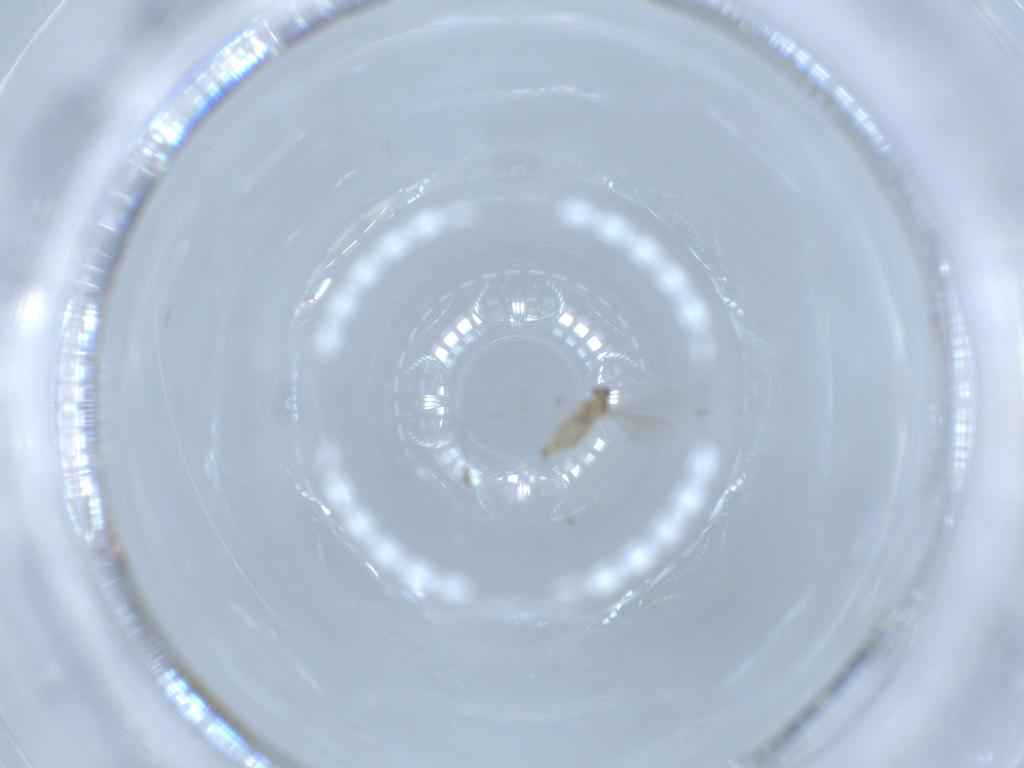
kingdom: Animalia
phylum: Arthropoda
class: Insecta
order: Diptera
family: Cecidomyiidae
